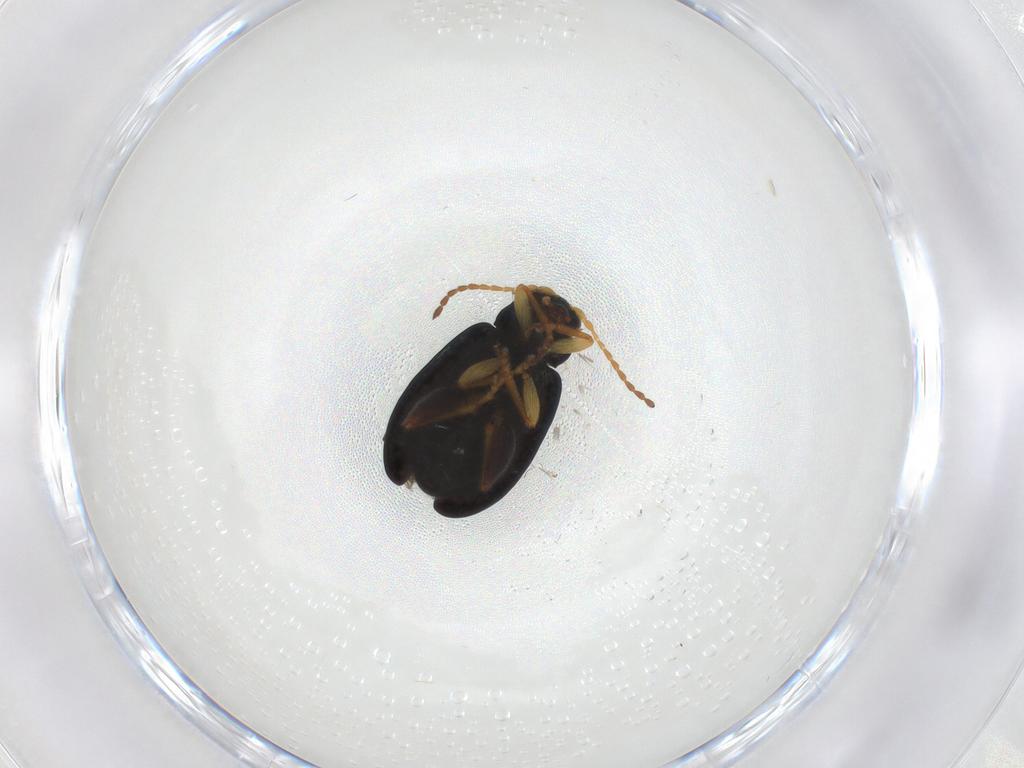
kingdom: Animalia
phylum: Arthropoda
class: Insecta
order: Coleoptera
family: Chrysomelidae
